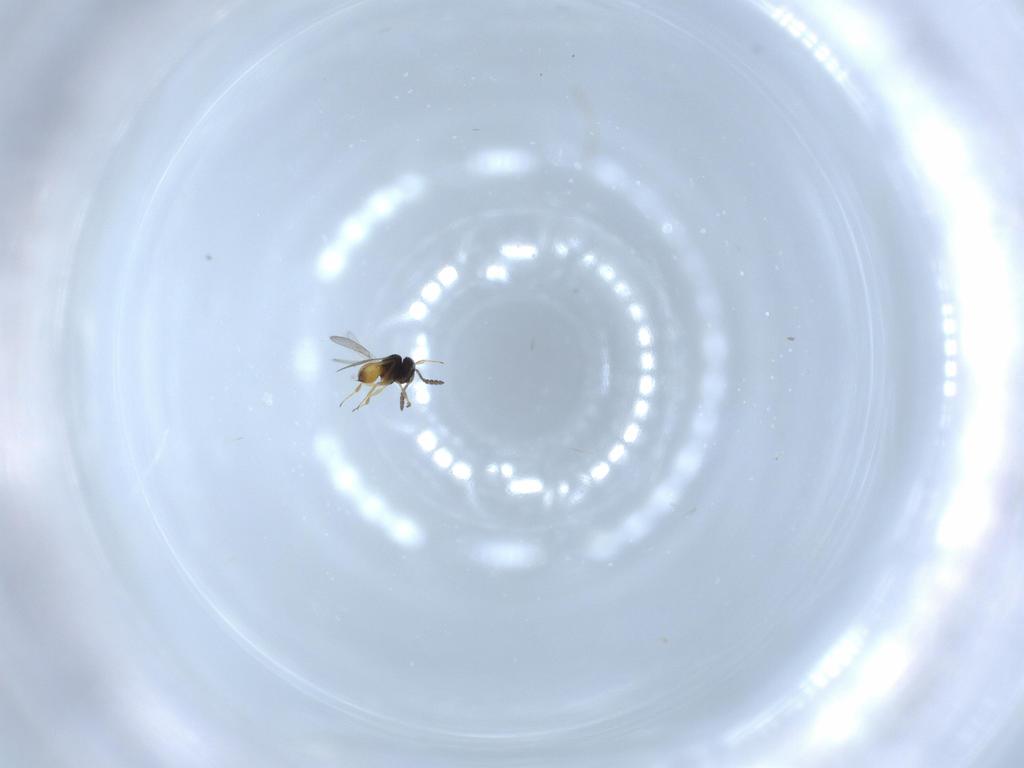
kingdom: Animalia
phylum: Arthropoda
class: Insecta
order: Hymenoptera
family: Scelionidae
